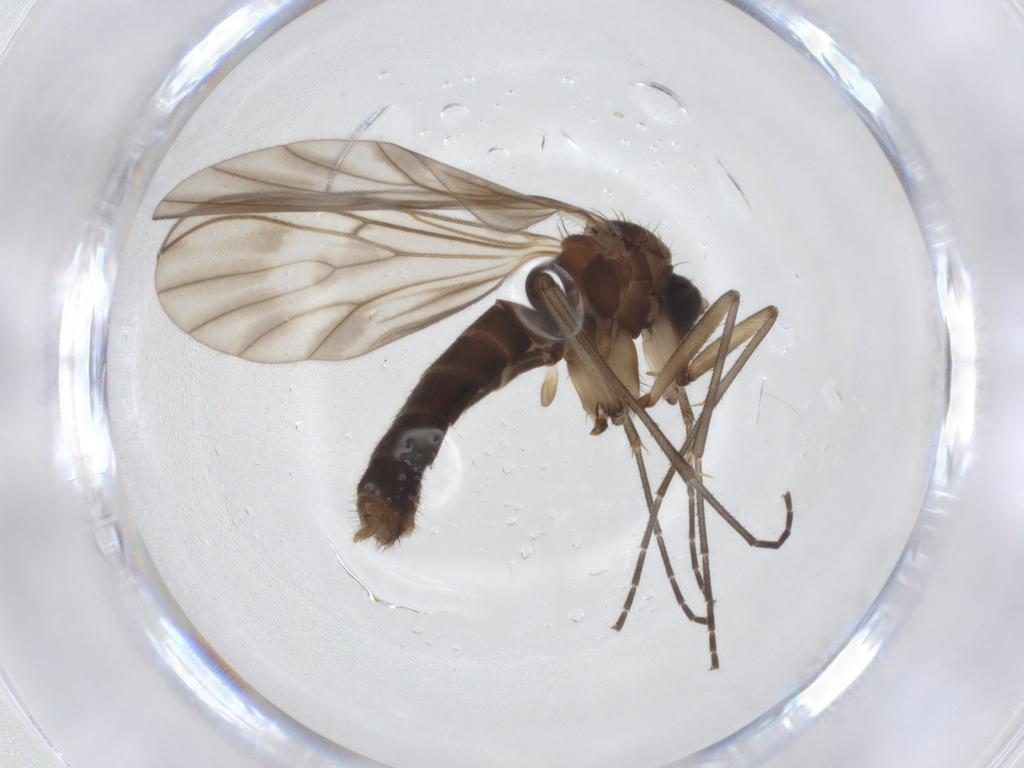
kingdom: Animalia
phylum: Arthropoda
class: Insecta
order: Diptera
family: Mycetophilidae
